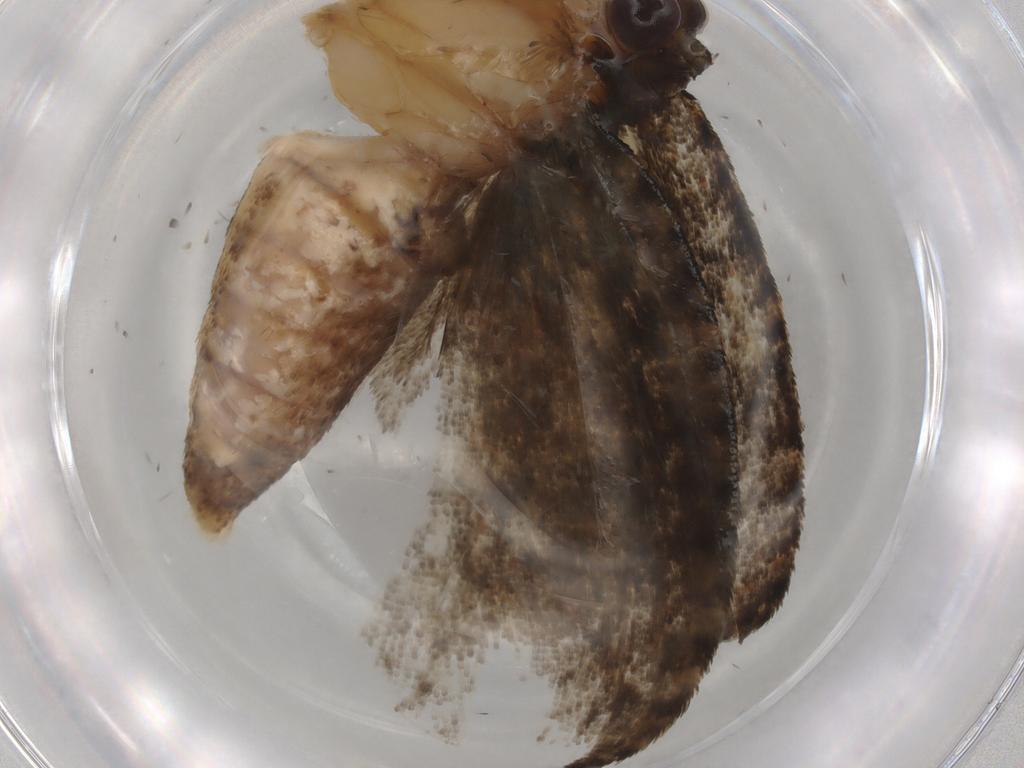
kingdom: Animalia
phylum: Arthropoda
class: Insecta
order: Lepidoptera
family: Tortricidae
